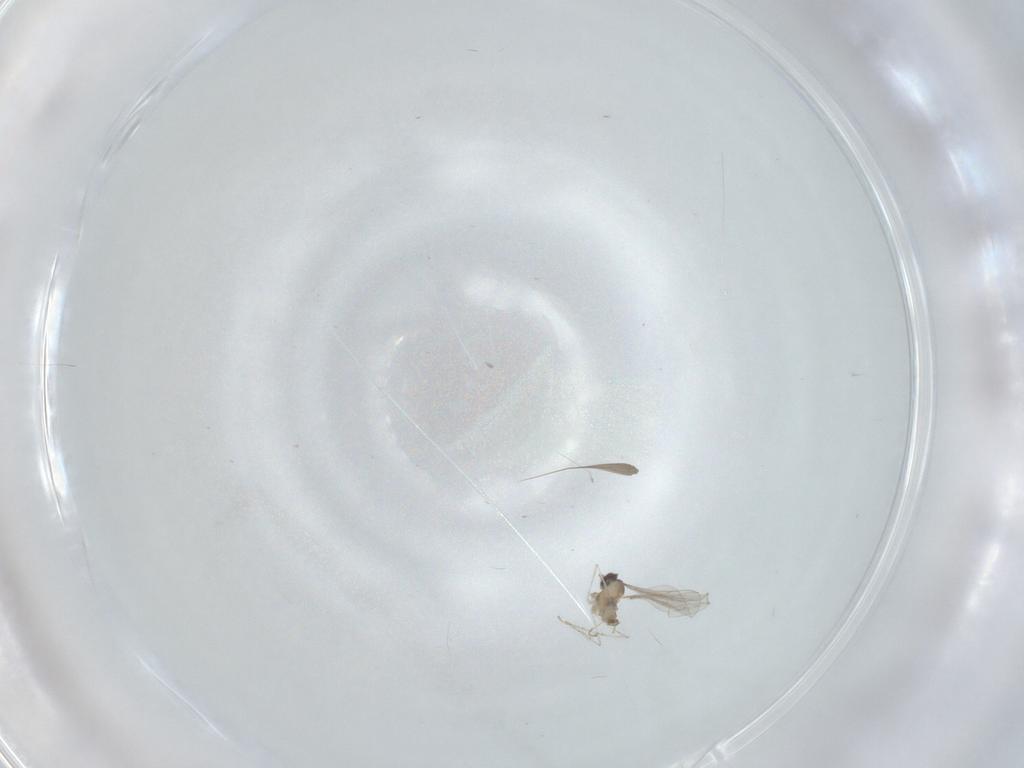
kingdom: Animalia
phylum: Arthropoda
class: Insecta
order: Diptera
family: Cecidomyiidae
